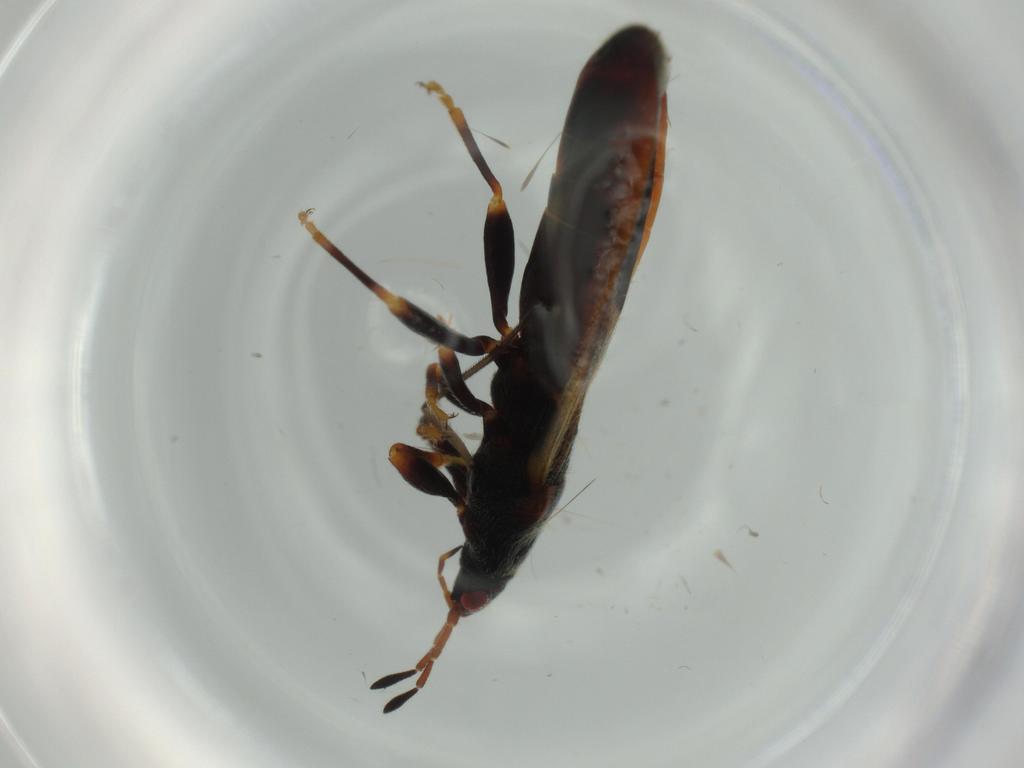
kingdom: Animalia
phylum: Arthropoda
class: Insecta
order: Hemiptera
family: Blissidae
